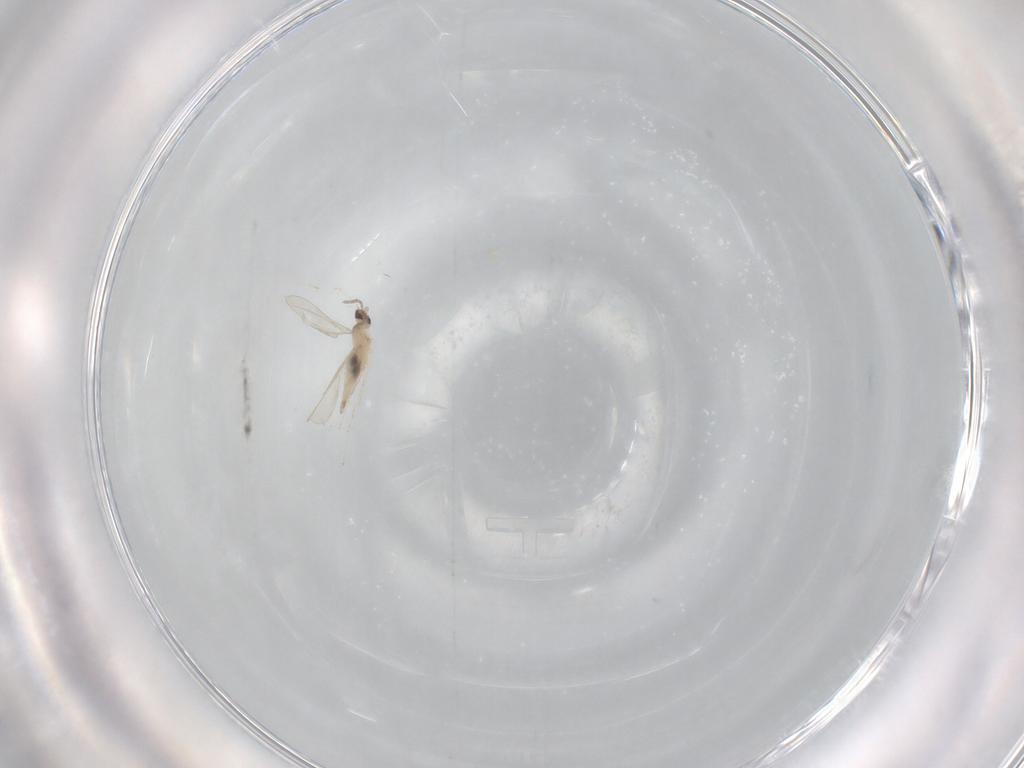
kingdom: Animalia
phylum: Arthropoda
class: Insecta
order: Diptera
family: Cecidomyiidae
